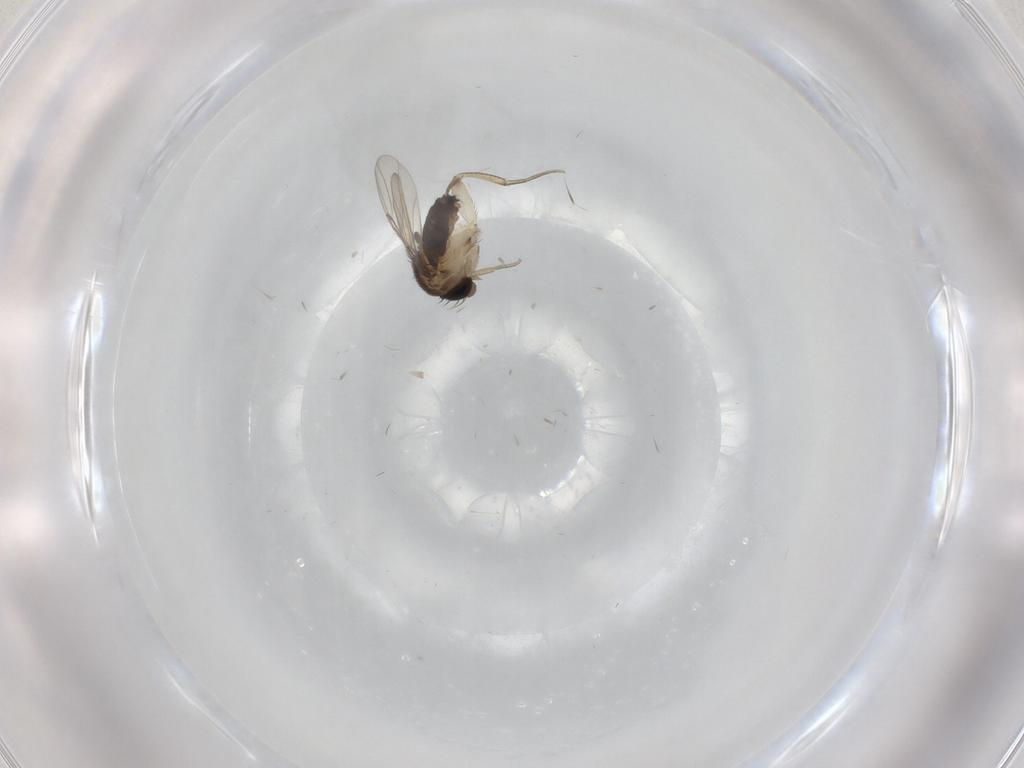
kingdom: Animalia
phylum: Arthropoda
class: Insecta
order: Diptera
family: Phoridae
